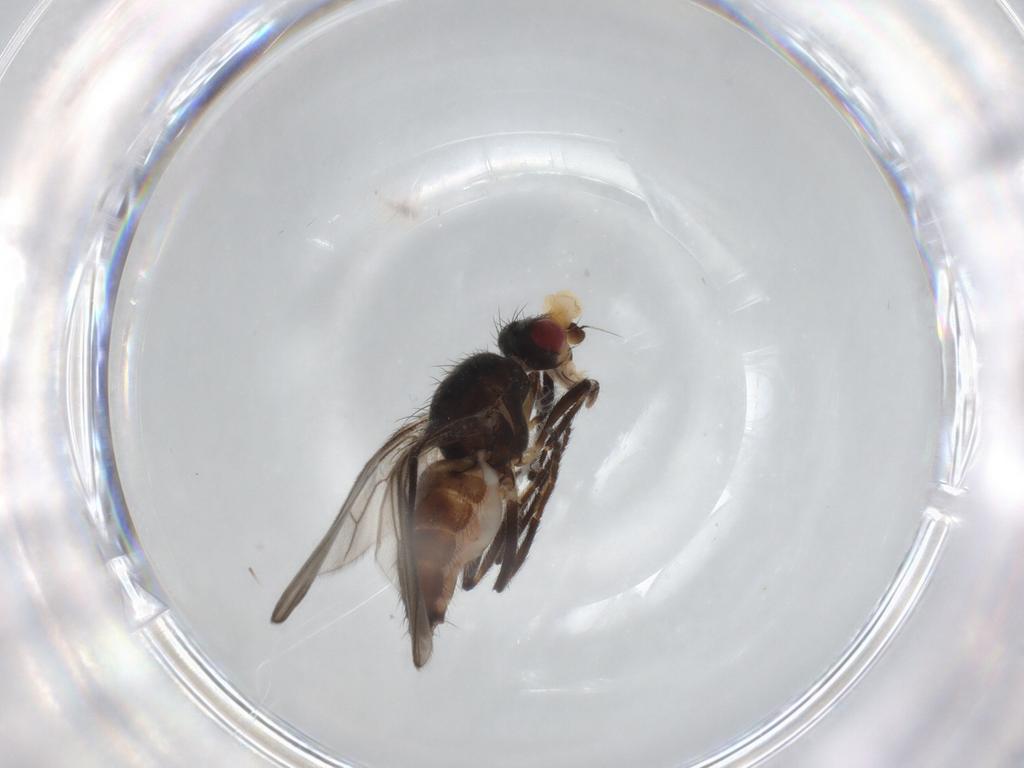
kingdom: Animalia
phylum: Arthropoda
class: Insecta
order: Diptera
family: Chloropidae
